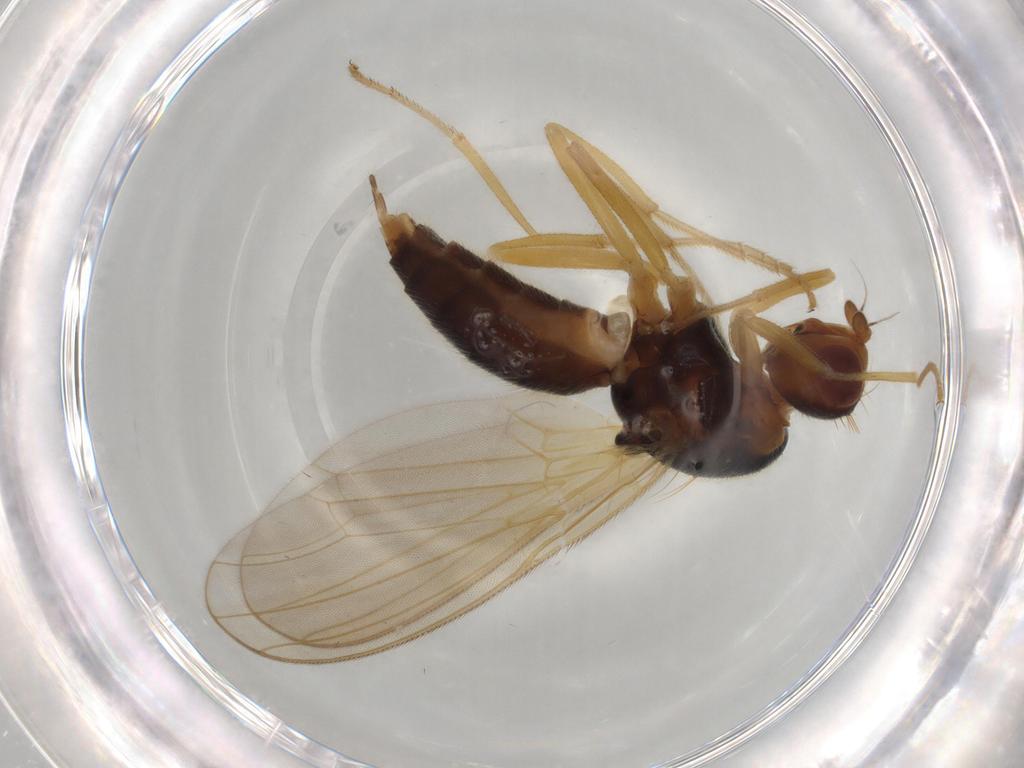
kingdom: Animalia
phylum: Arthropoda
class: Insecta
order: Diptera
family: Psilidae
